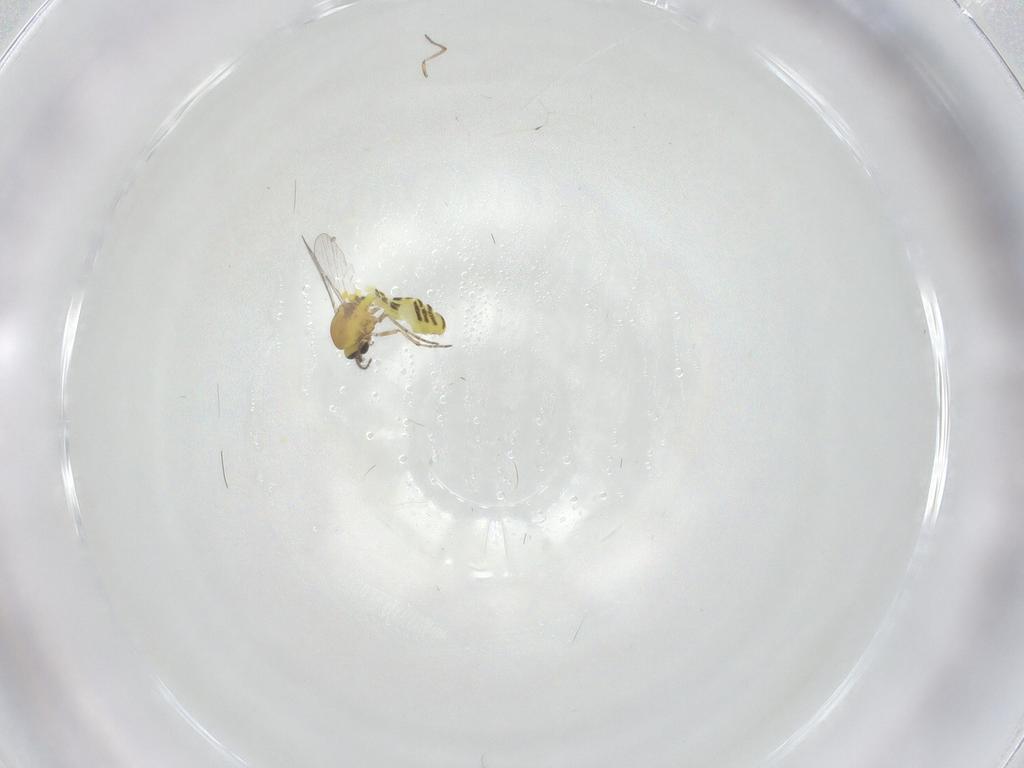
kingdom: Animalia
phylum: Arthropoda
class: Insecta
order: Diptera
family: Ceratopogonidae
